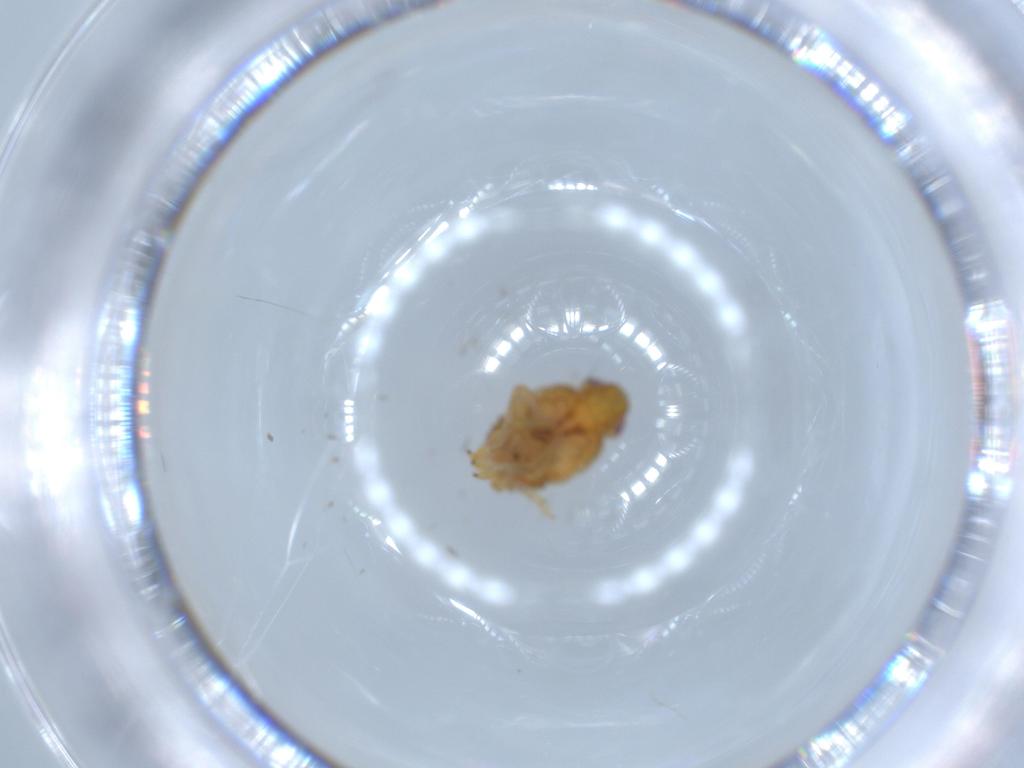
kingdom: Animalia
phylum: Arthropoda
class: Insecta
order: Hemiptera
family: Issidae
